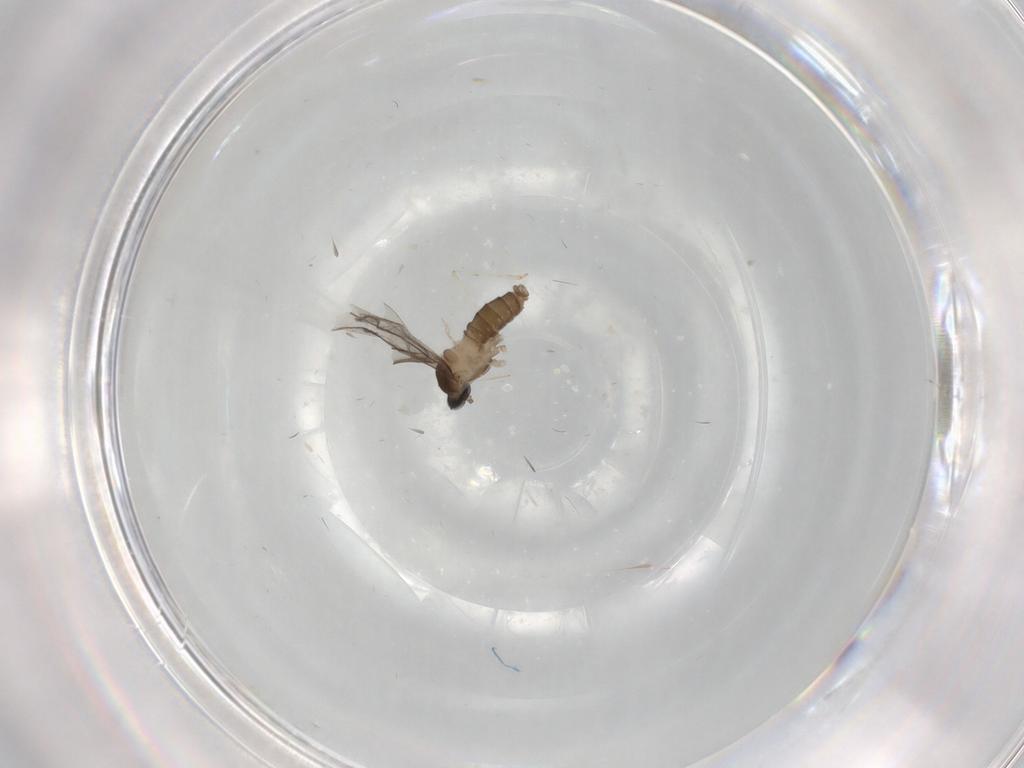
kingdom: Animalia
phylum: Arthropoda
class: Insecta
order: Diptera
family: Cecidomyiidae
